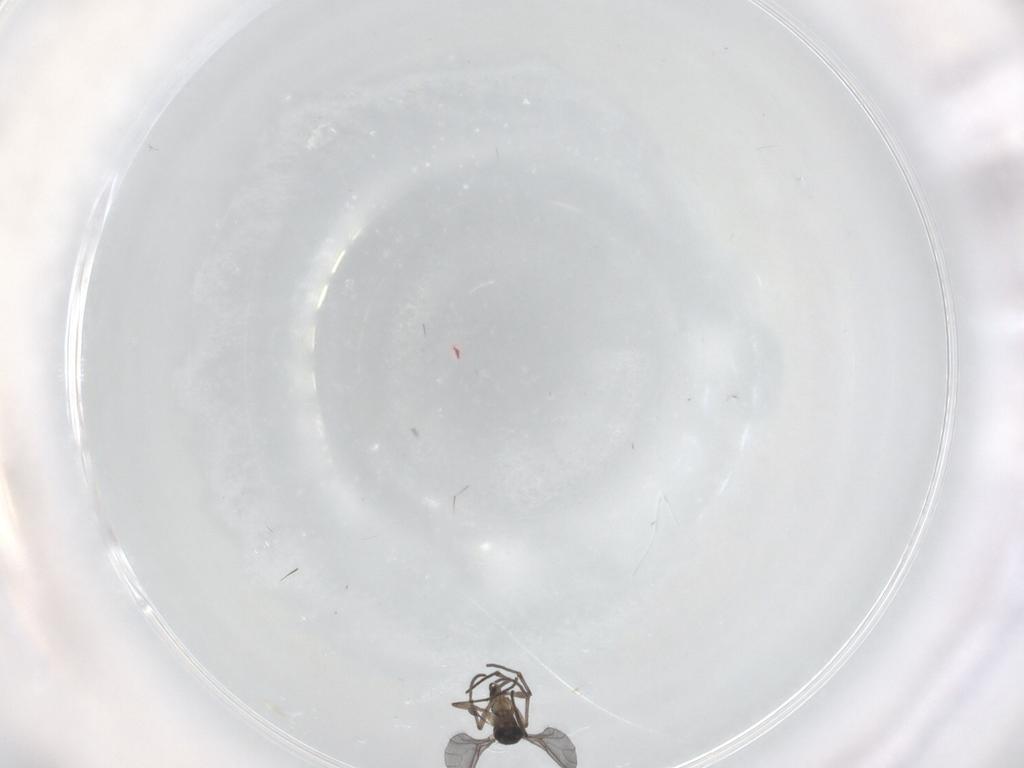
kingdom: Animalia
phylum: Arthropoda
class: Insecta
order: Diptera
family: Sciaridae
